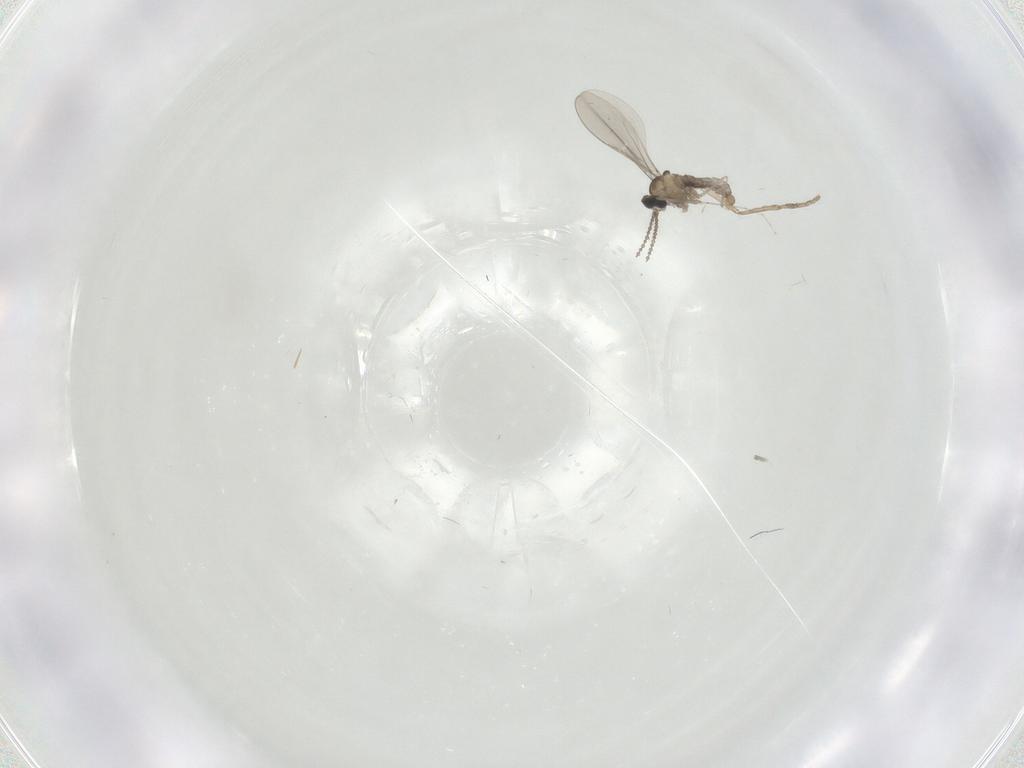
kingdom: Animalia
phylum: Arthropoda
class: Insecta
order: Diptera
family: Cecidomyiidae
